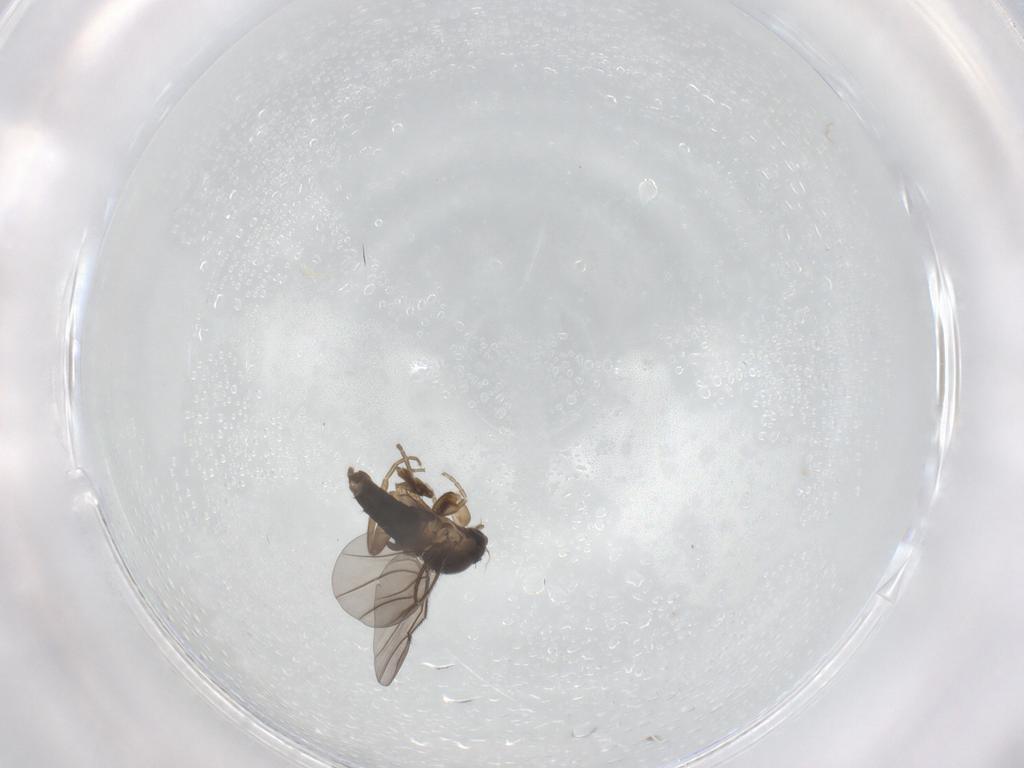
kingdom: Animalia
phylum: Arthropoda
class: Insecta
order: Diptera
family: Phoridae
